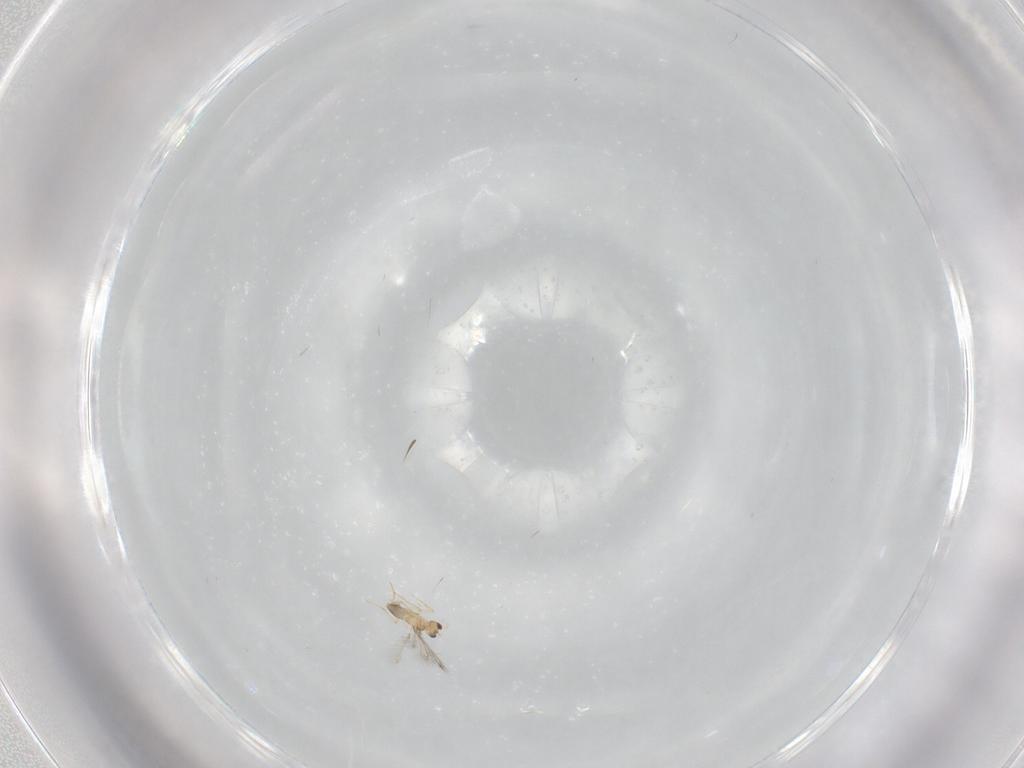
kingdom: Animalia
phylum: Arthropoda
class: Insecta
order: Hymenoptera
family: Mymaridae
